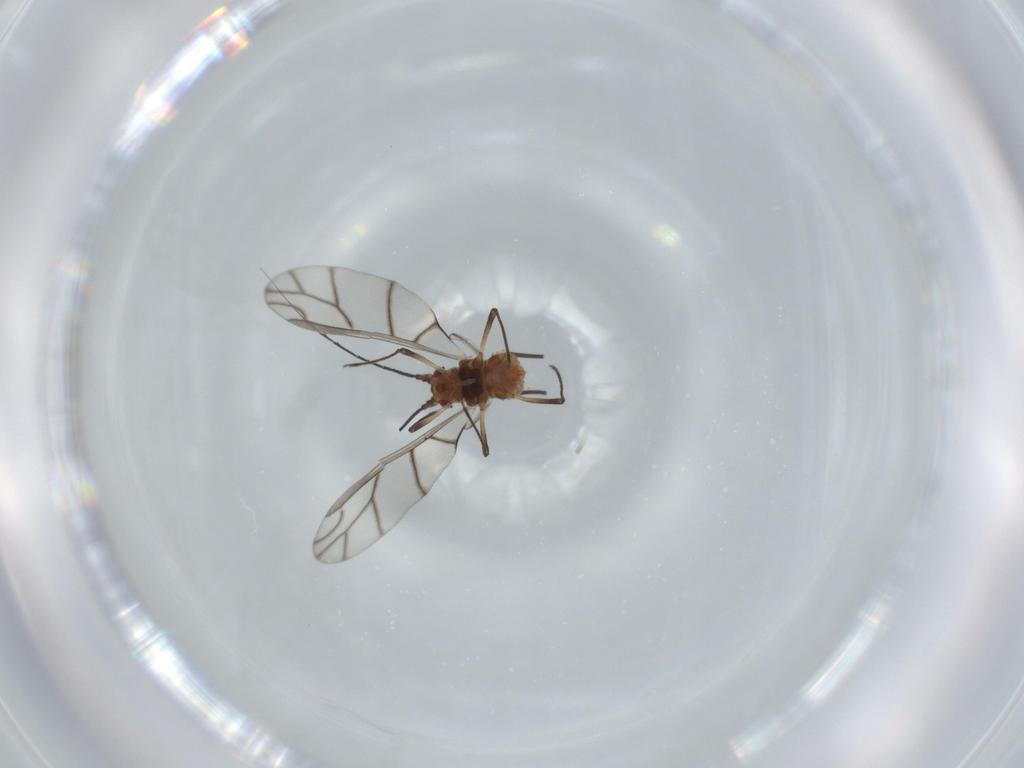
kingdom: Animalia
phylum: Arthropoda
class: Insecta
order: Hemiptera
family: Aphididae
